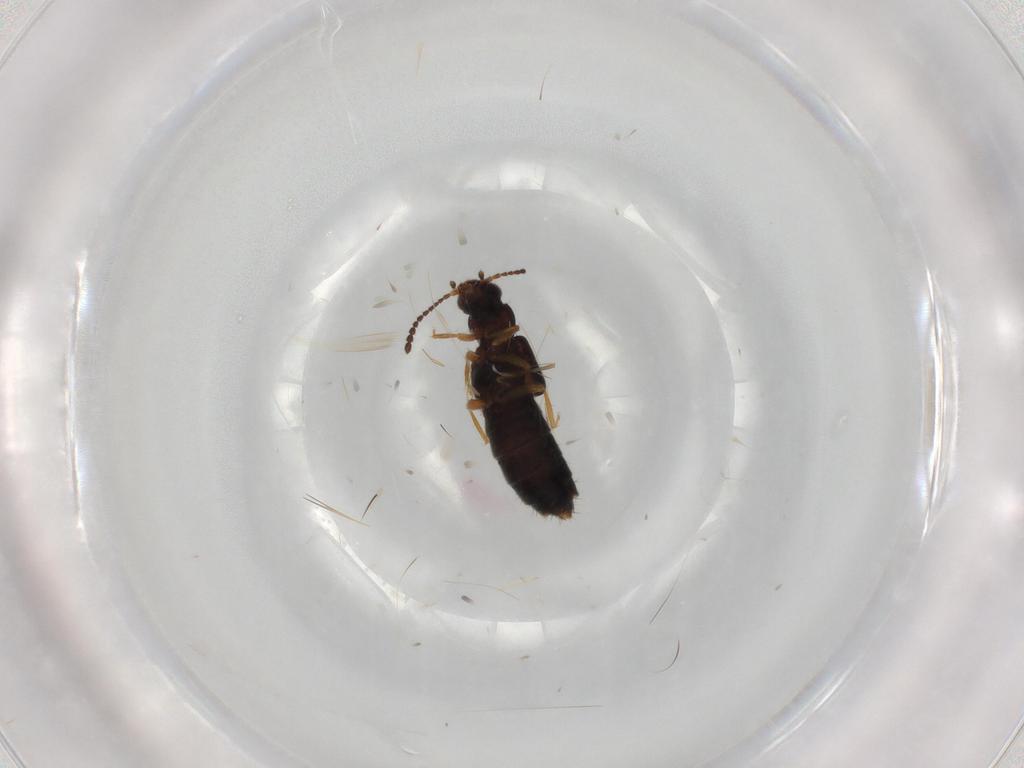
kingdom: Animalia
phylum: Arthropoda
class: Insecta
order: Coleoptera
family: Staphylinidae
